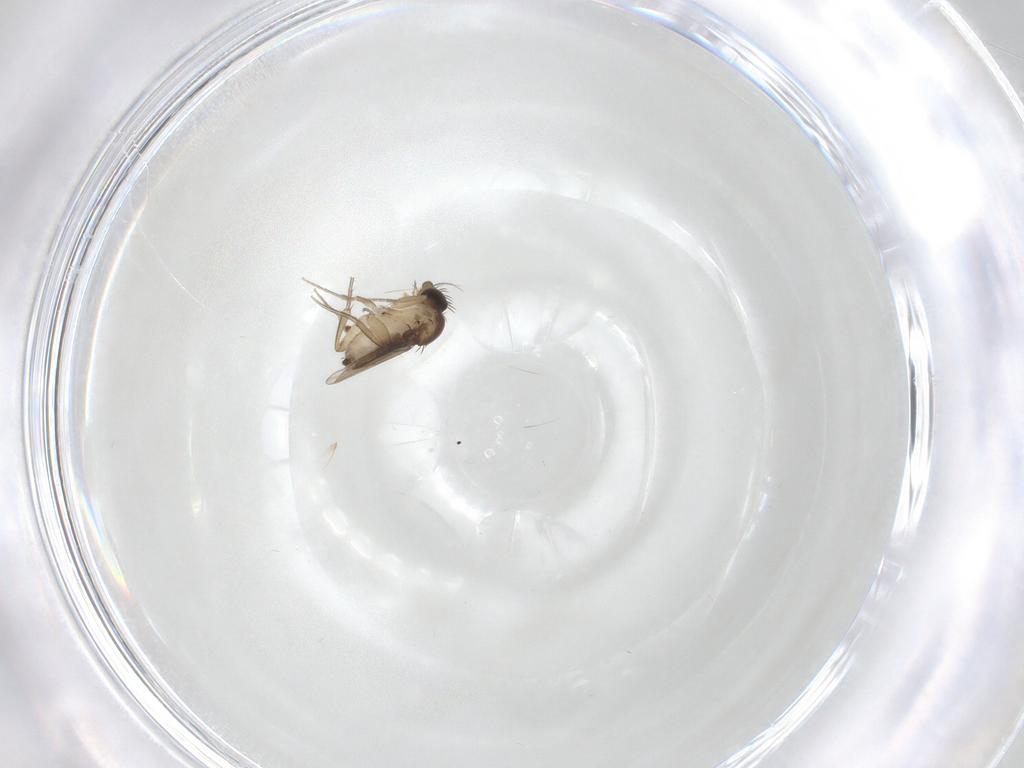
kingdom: Animalia
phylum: Arthropoda
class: Insecta
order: Diptera
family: Phoridae
